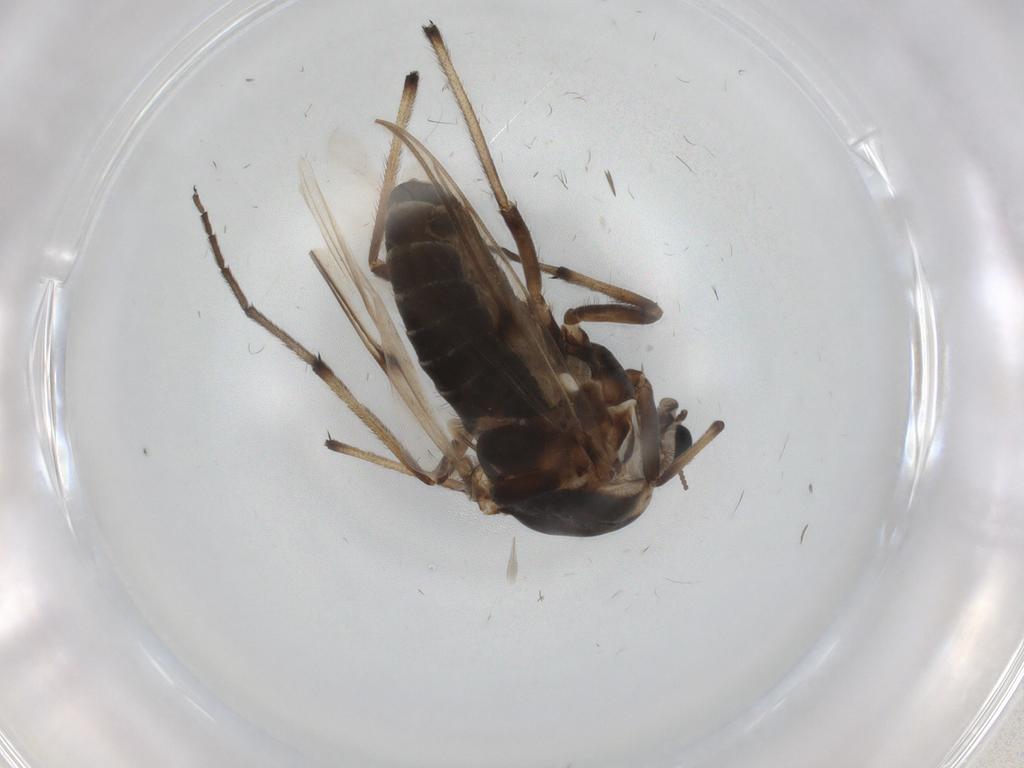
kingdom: Animalia
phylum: Arthropoda
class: Insecta
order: Diptera
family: Chironomidae
